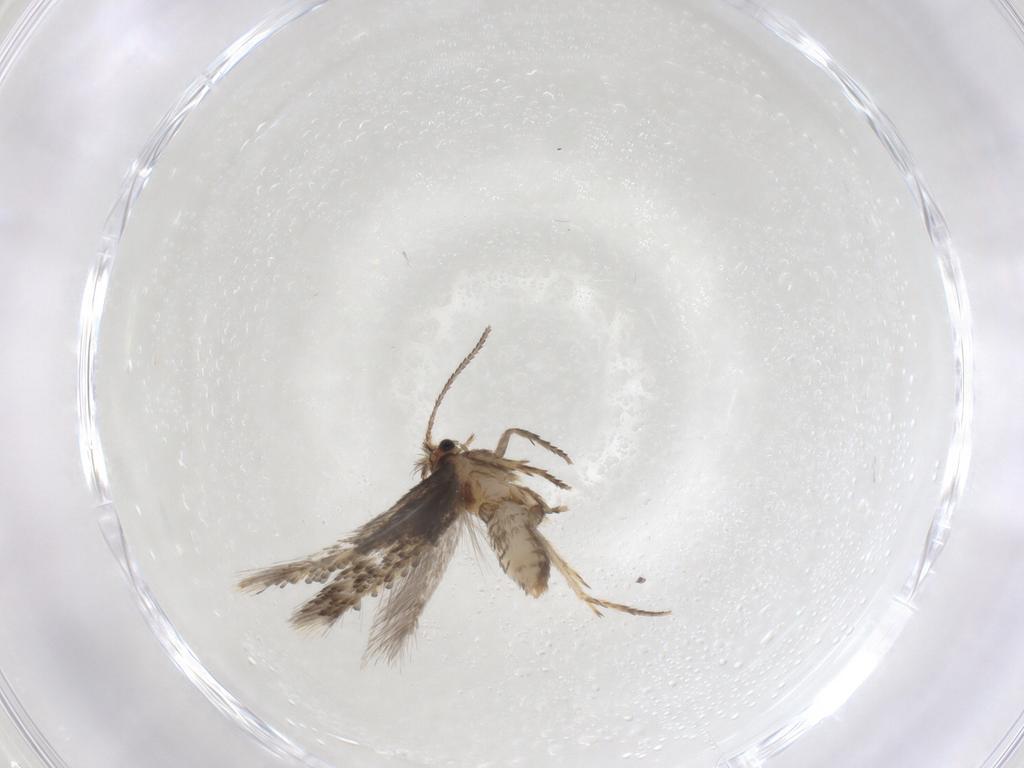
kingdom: Animalia
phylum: Arthropoda
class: Insecta
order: Lepidoptera
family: Nepticulidae
